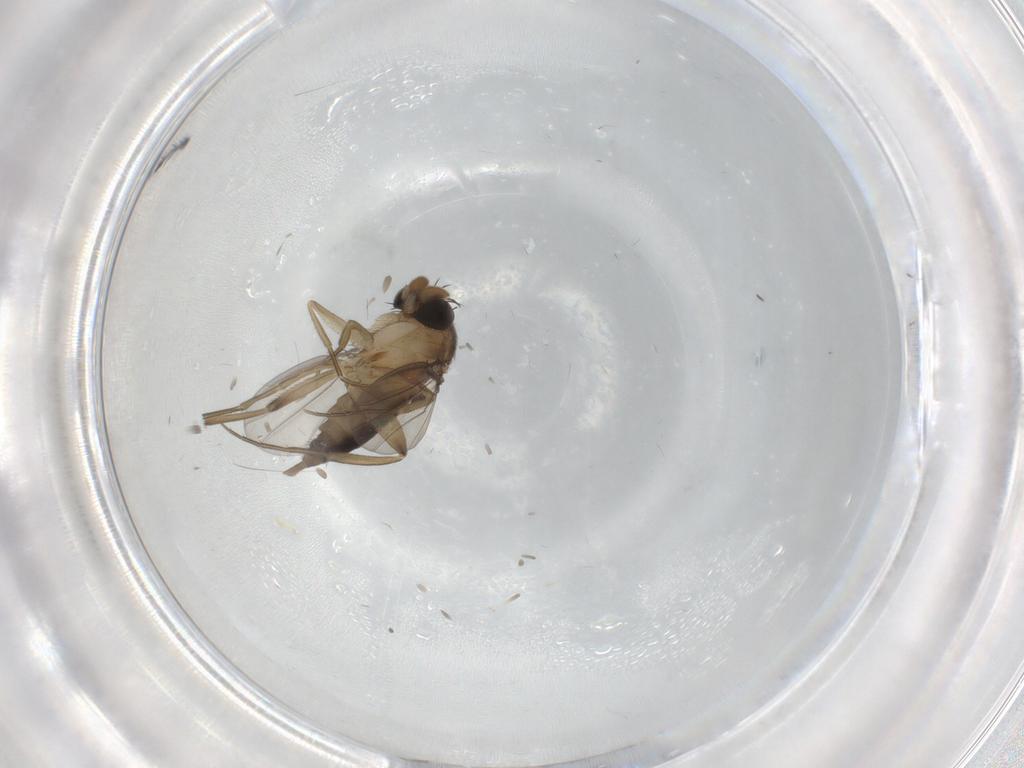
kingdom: Animalia
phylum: Arthropoda
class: Insecta
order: Diptera
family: Phoridae
